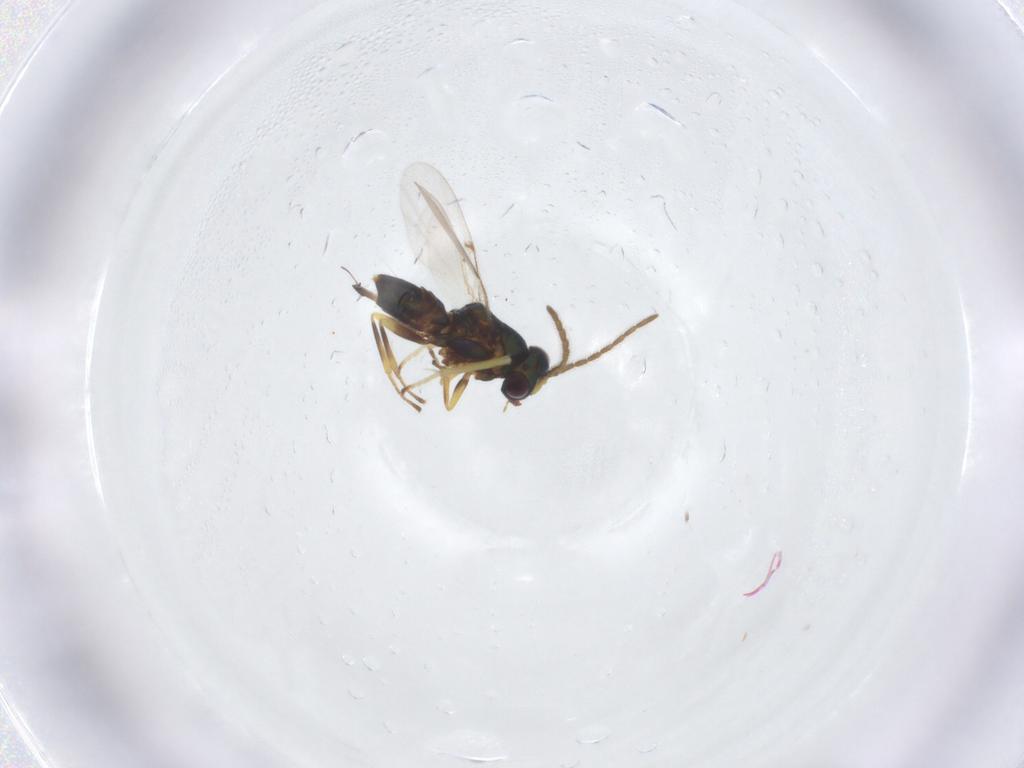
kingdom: Animalia
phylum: Arthropoda
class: Insecta
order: Hymenoptera
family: Encyrtidae
